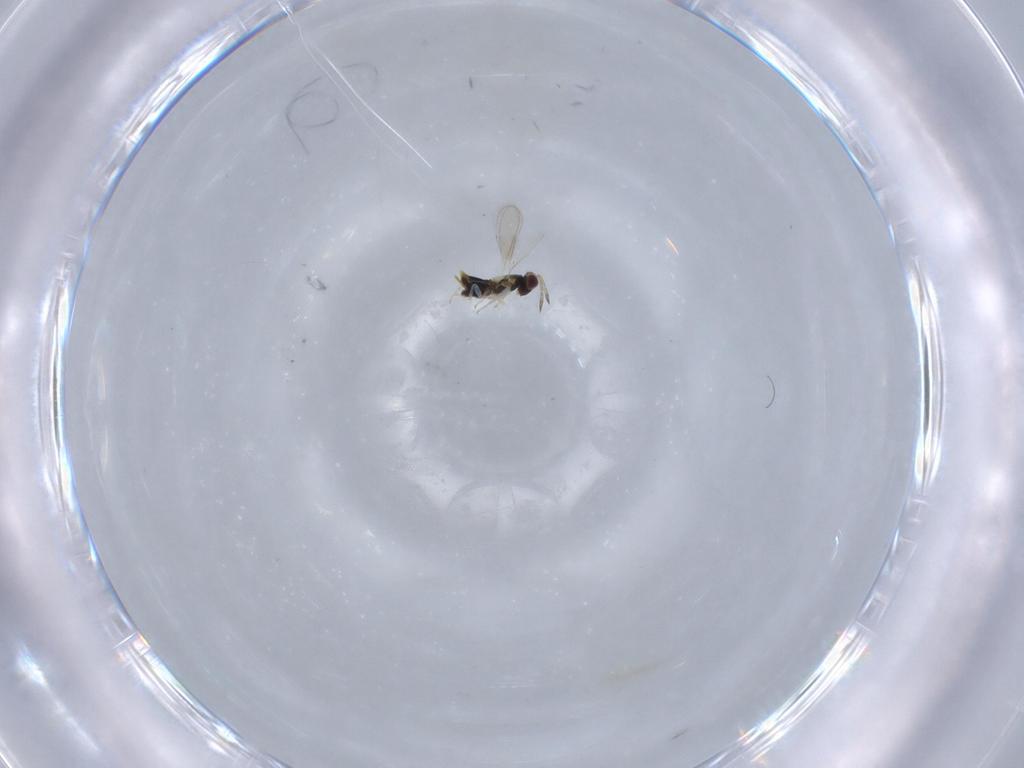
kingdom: Animalia
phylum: Arthropoda
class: Insecta
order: Hymenoptera
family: Aphelinidae
